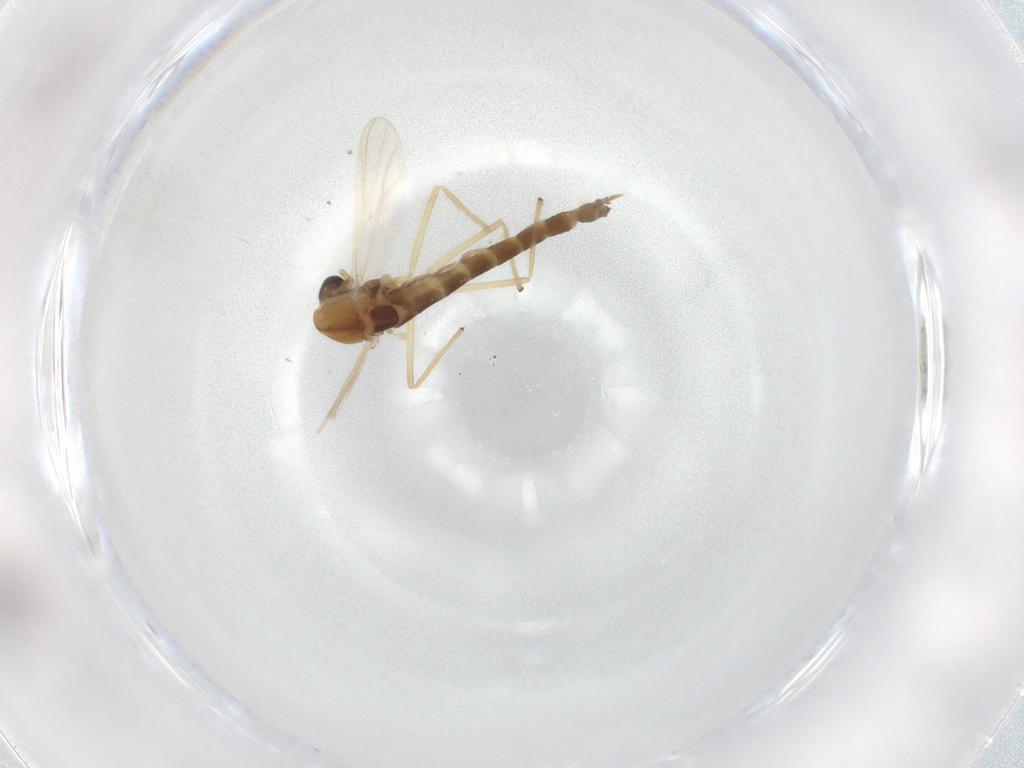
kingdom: Animalia
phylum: Arthropoda
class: Insecta
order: Diptera
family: Chironomidae
